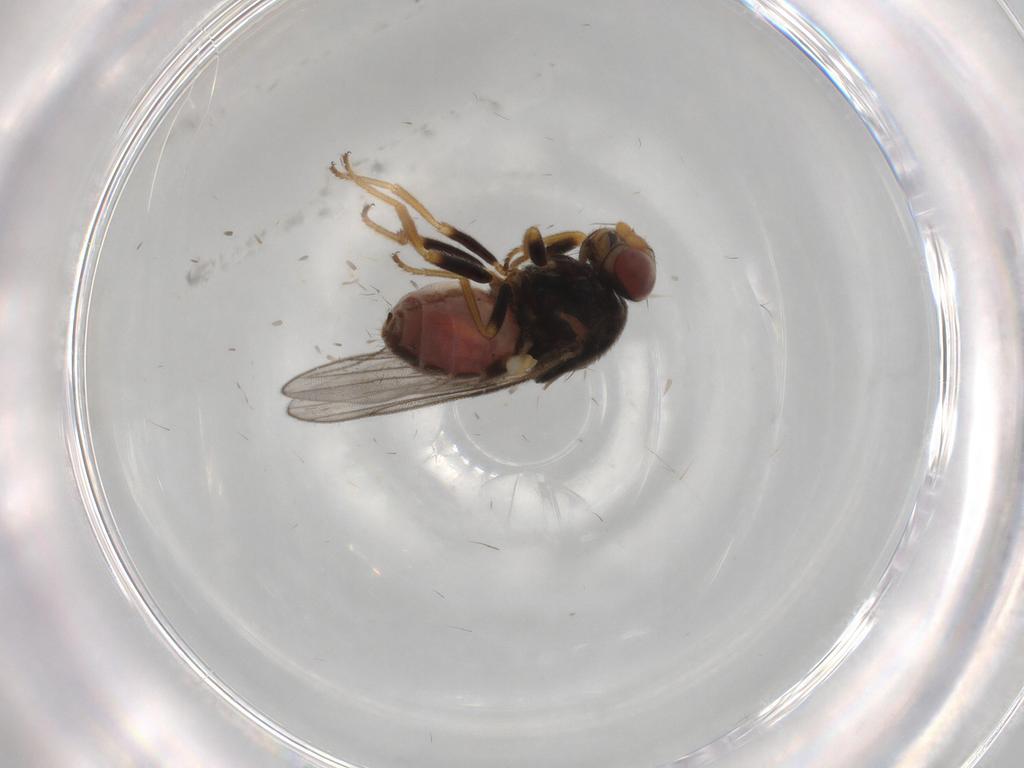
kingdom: Animalia
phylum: Arthropoda
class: Insecta
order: Diptera
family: Chloropidae
